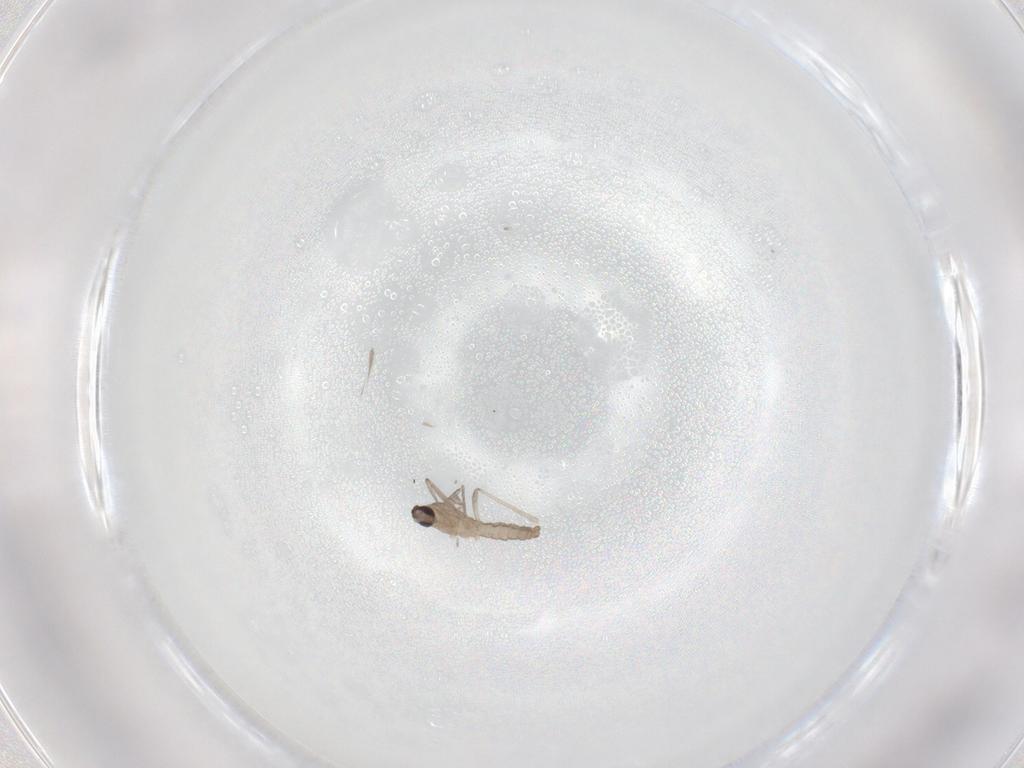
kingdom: Animalia
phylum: Arthropoda
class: Insecta
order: Diptera
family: Cecidomyiidae
